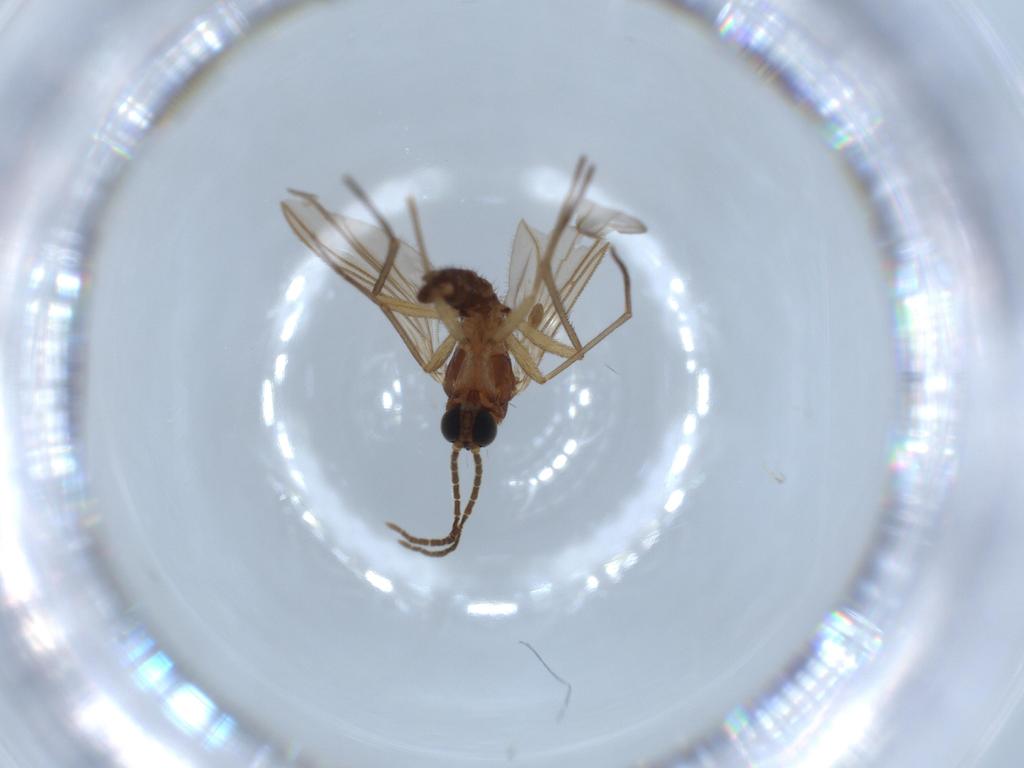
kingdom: Animalia
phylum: Arthropoda
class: Insecta
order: Diptera
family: Sciaridae
